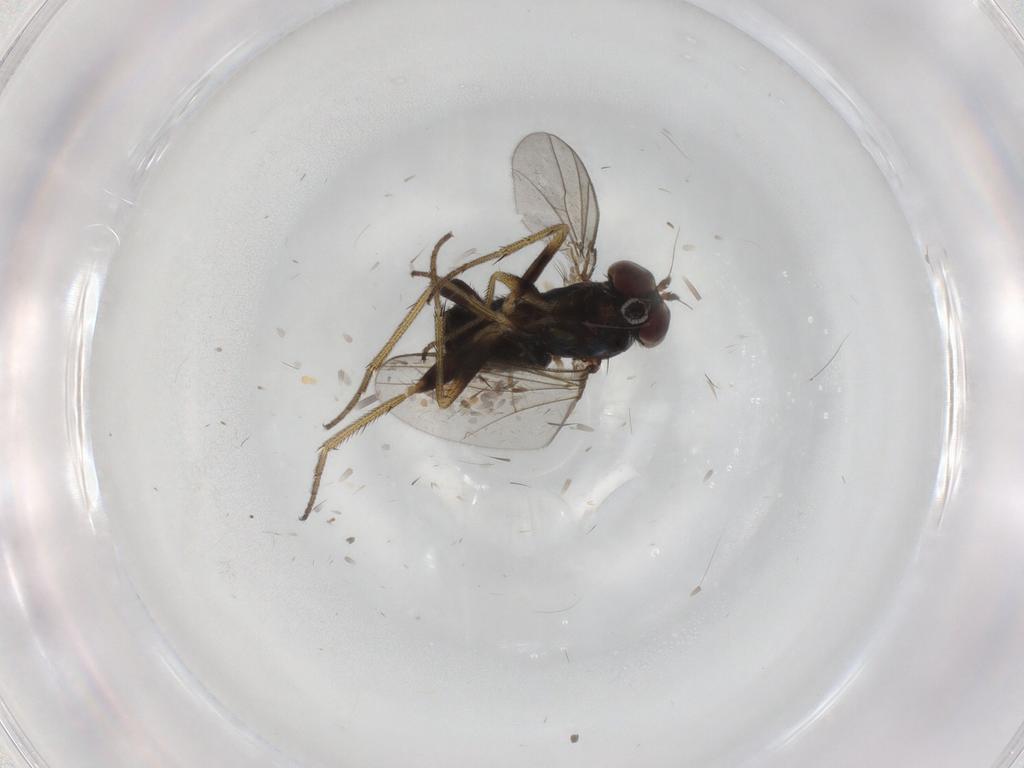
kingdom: Animalia
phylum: Arthropoda
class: Insecta
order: Diptera
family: Dolichopodidae
